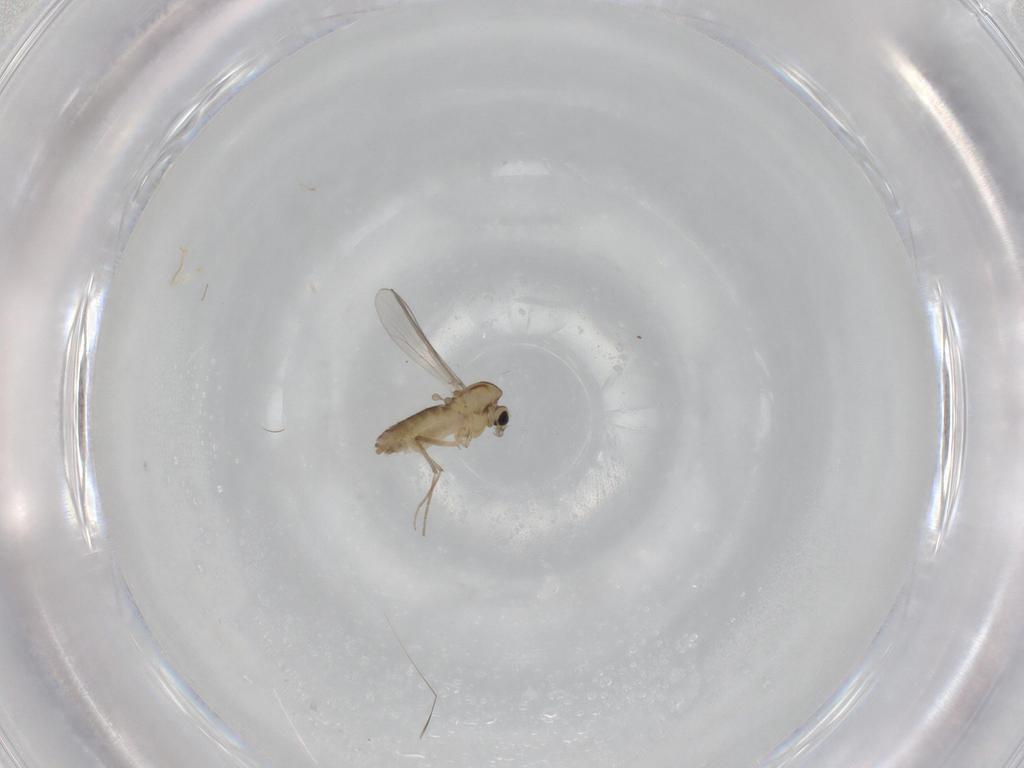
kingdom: Animalia
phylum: Arthropoda
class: Insecta
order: Diptera
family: Chironomidae
